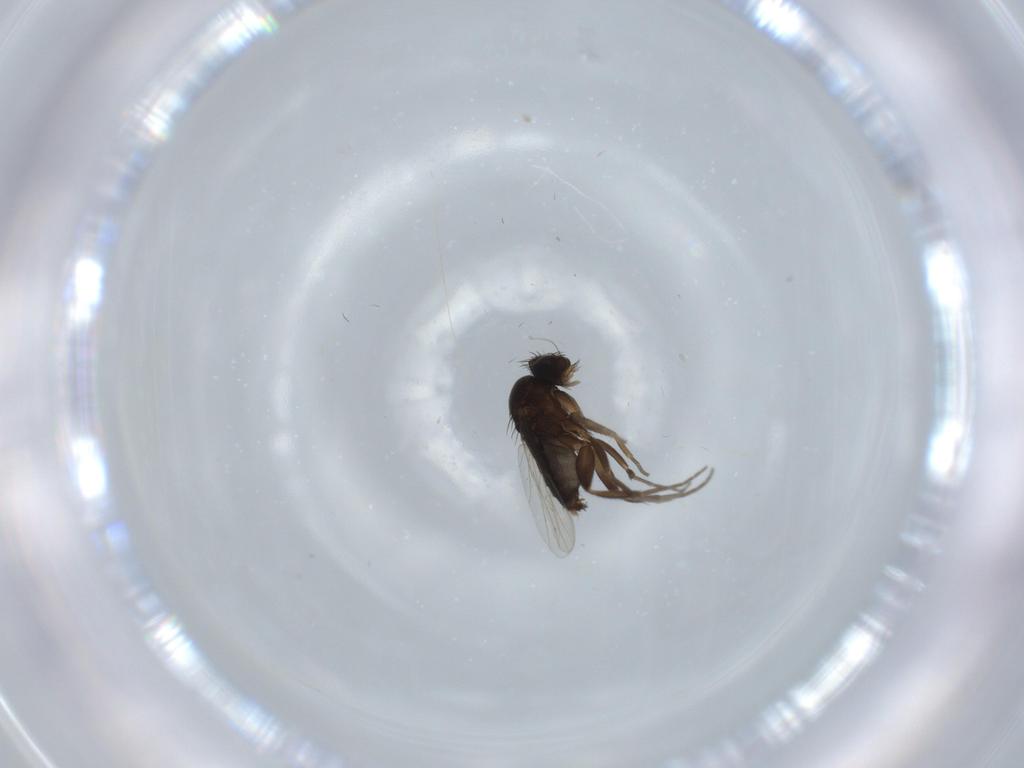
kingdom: Animalia
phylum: Arthropoda
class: Insecta
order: Diptera
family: Phoridae
